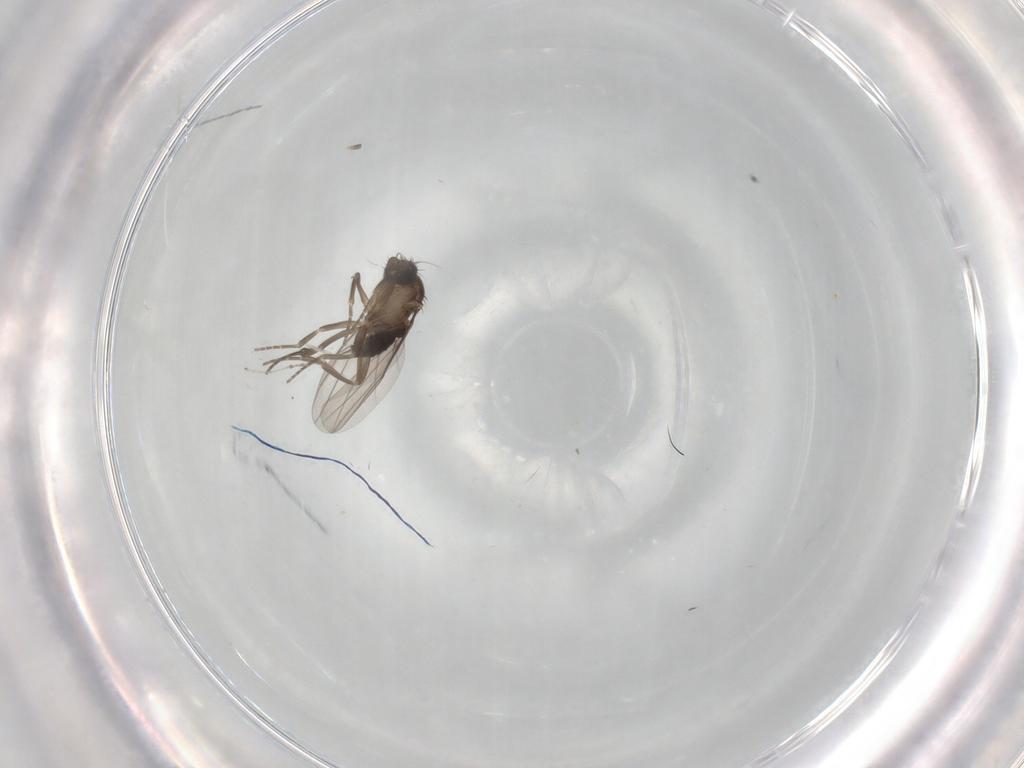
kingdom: Animalia
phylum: Arthropoda
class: Insecta
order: Diptera
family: Cecidomyiidae
